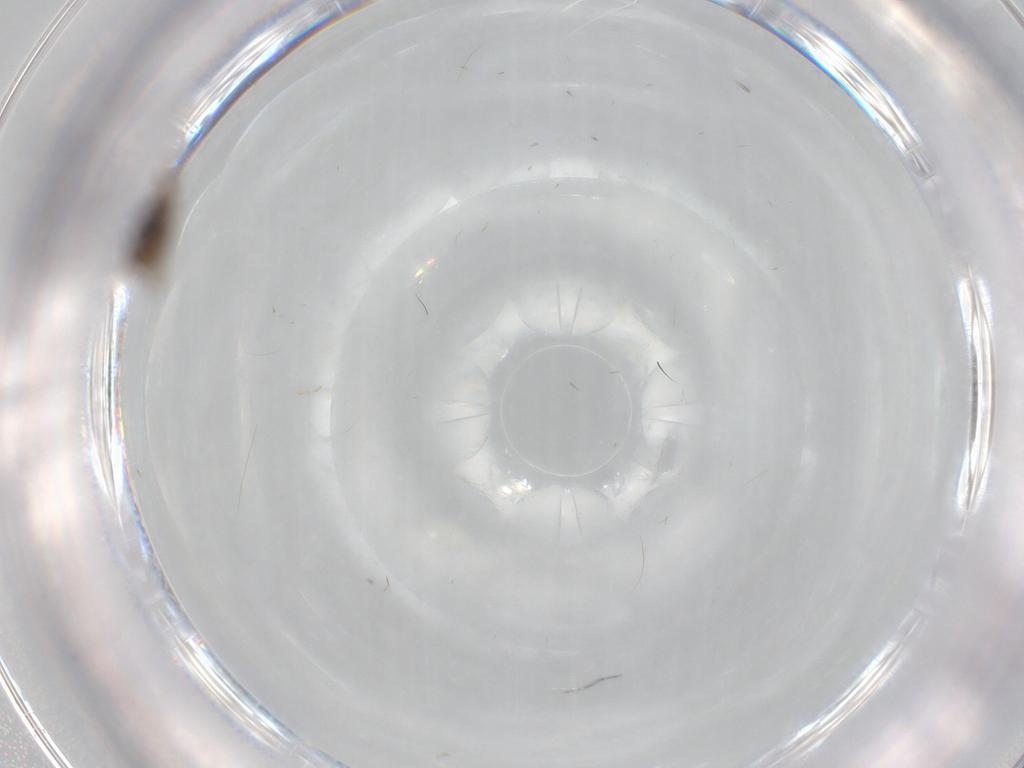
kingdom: Animalia
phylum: Arthropoda
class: Insecta
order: Diptera
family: Psychodidae
